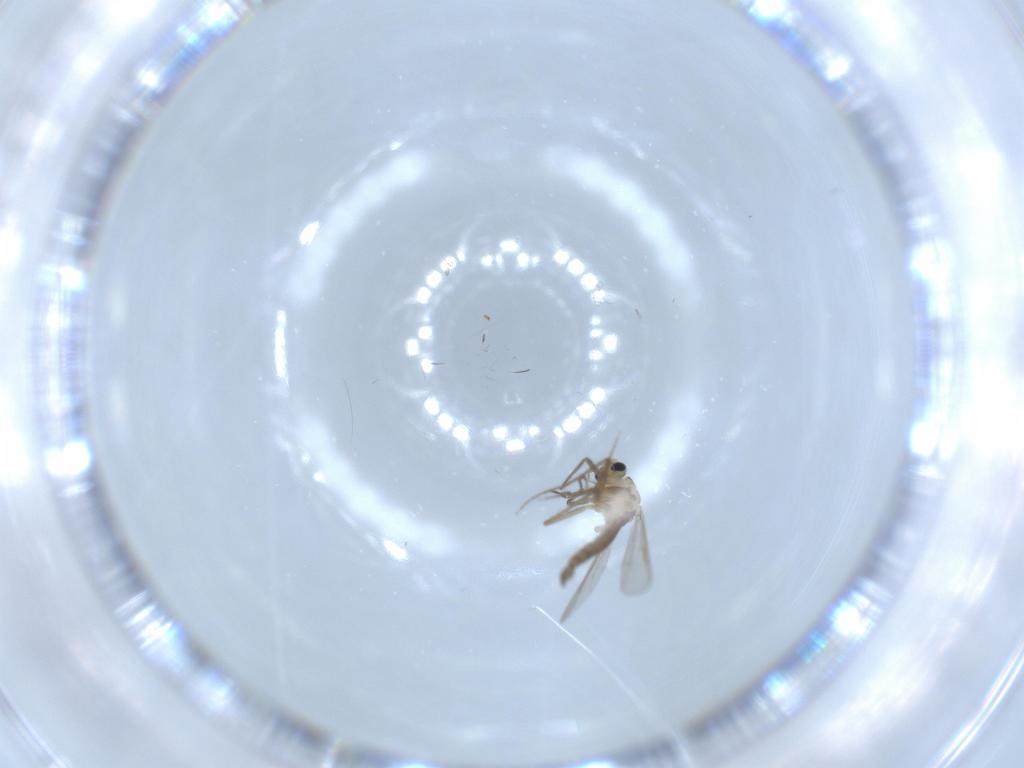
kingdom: Animalia
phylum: Arthropoda
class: Insecta
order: Diptera
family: Chironomidae
